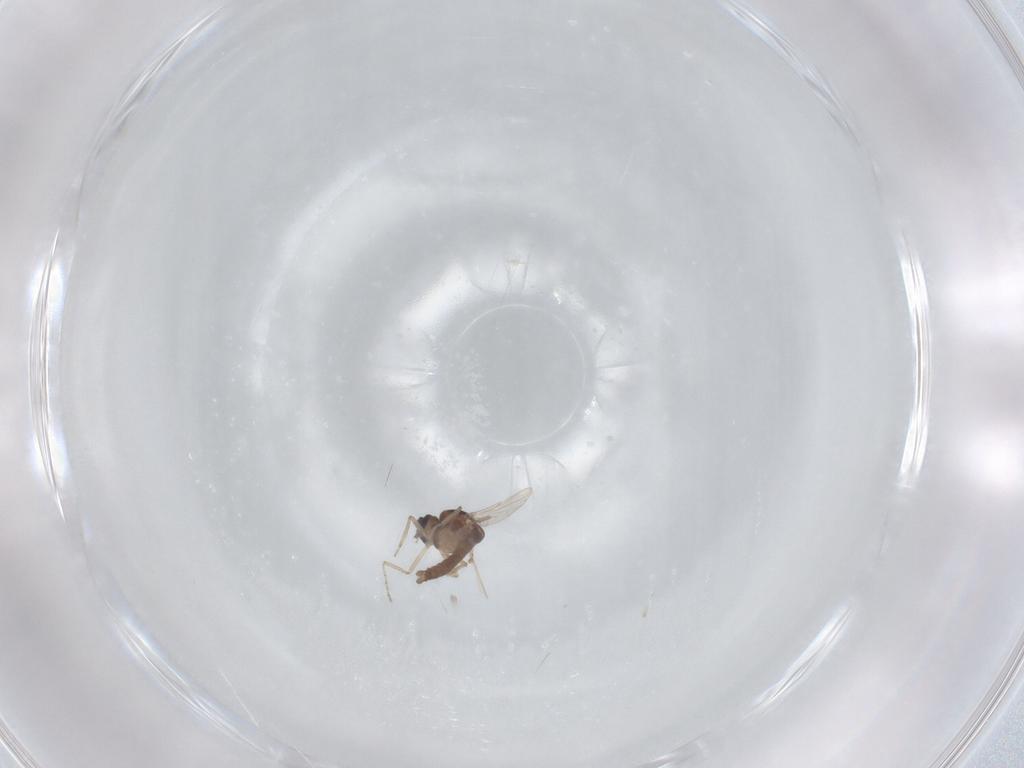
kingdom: Animalia
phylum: Arthropoda
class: Insecta
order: Diptera
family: Ceratopogonidae
